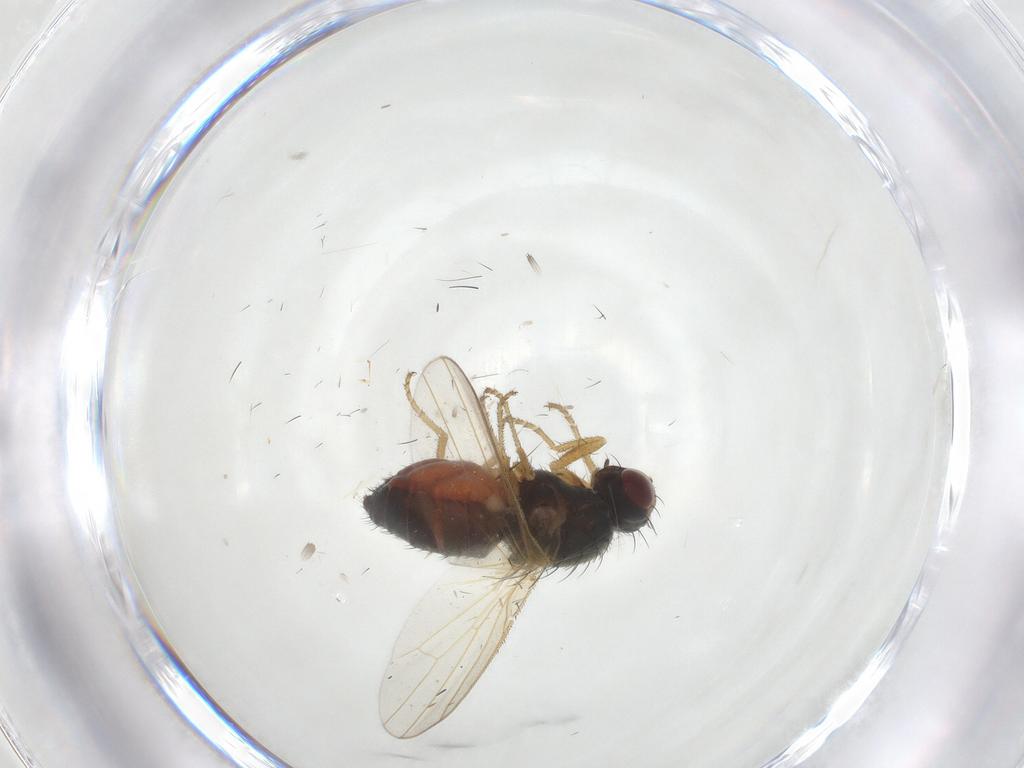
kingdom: Animalia
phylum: Arthropoda
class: Insecta
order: Diptera
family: Heleomyzidae
